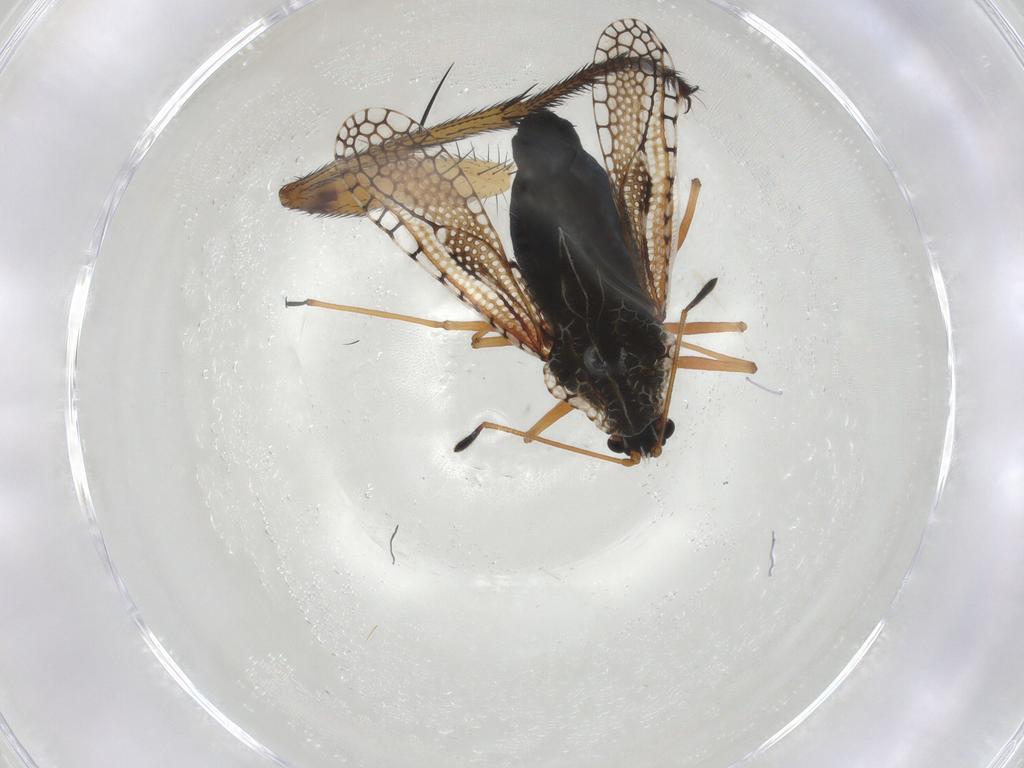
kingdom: Animalia
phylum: Arthropoda
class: Insecta
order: Diptera
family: Muscidae
